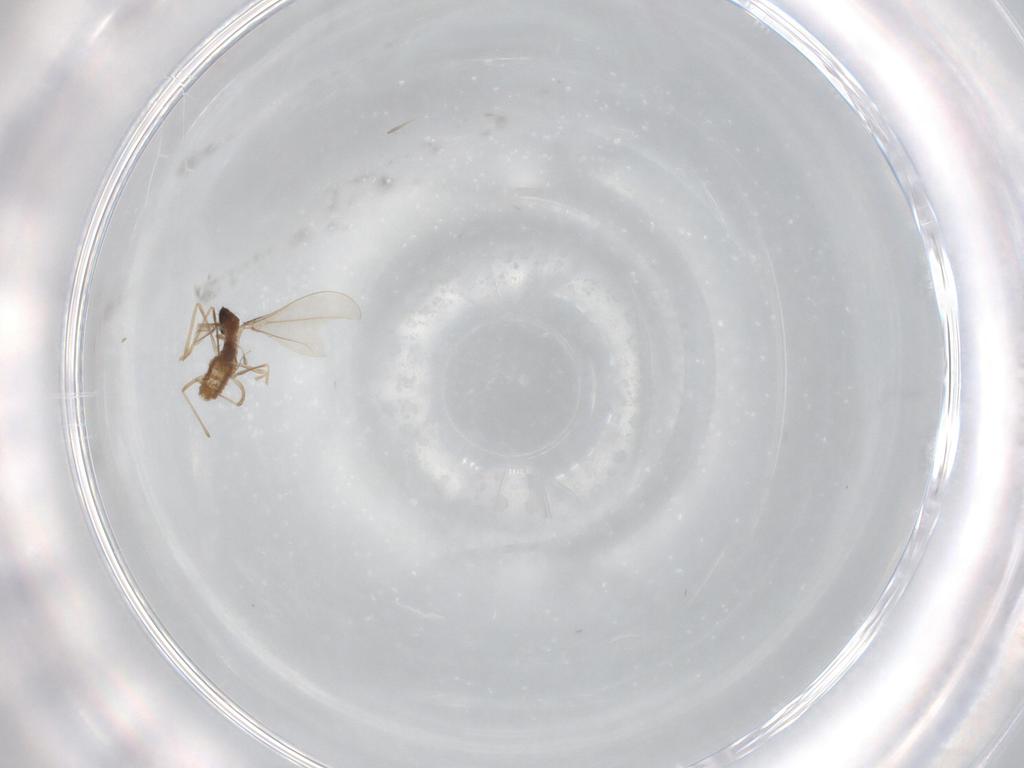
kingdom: Animalia
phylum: Arthropoda
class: Insecta
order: Diptera
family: Cecidomyiidae
